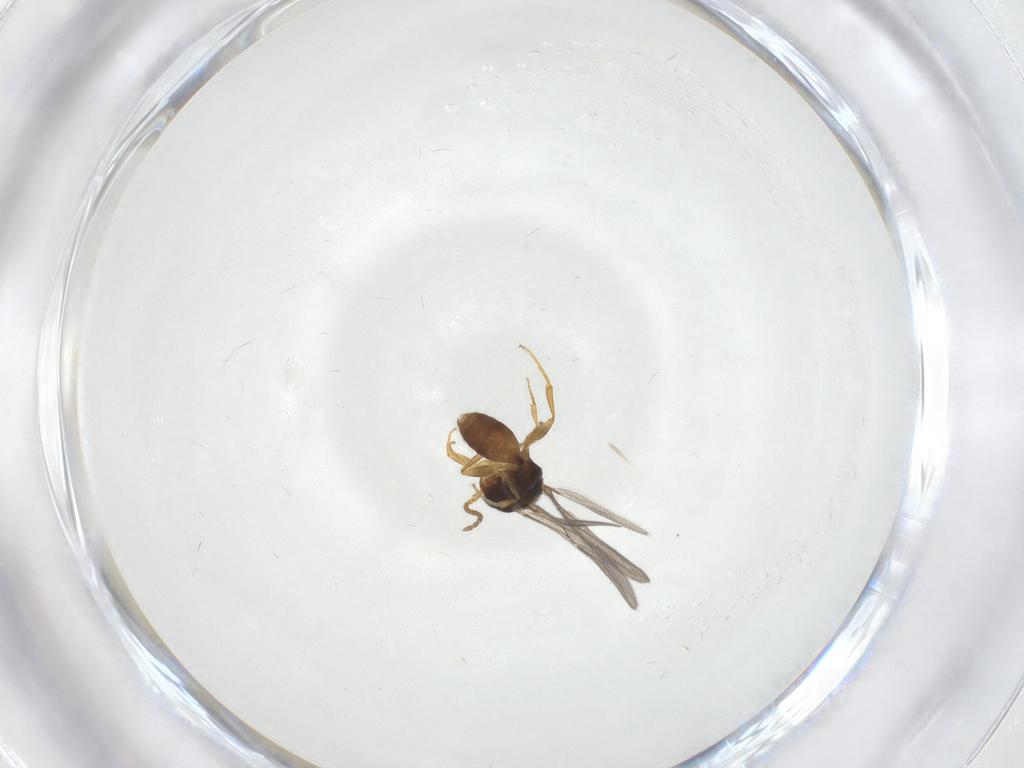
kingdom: Animalia
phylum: Arthropoda
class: Insecta
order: Hymenoptera
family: Bethylidae
